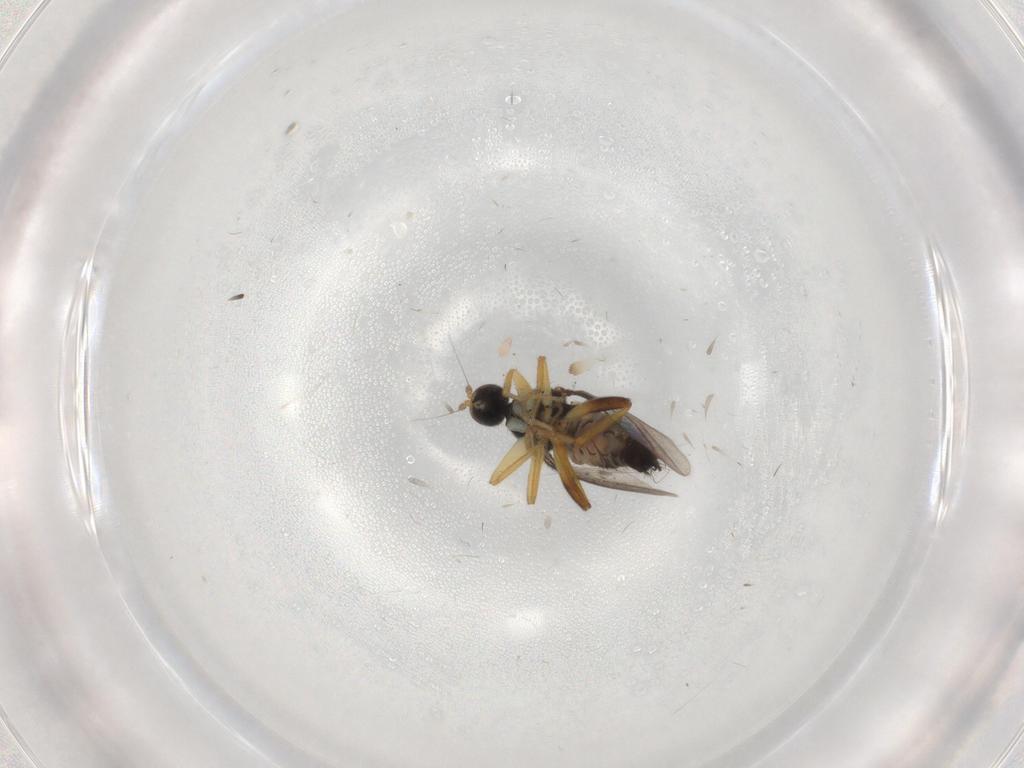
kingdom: Animalia
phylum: Arthropoda
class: Insecta
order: Diptera
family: Hybotidae
